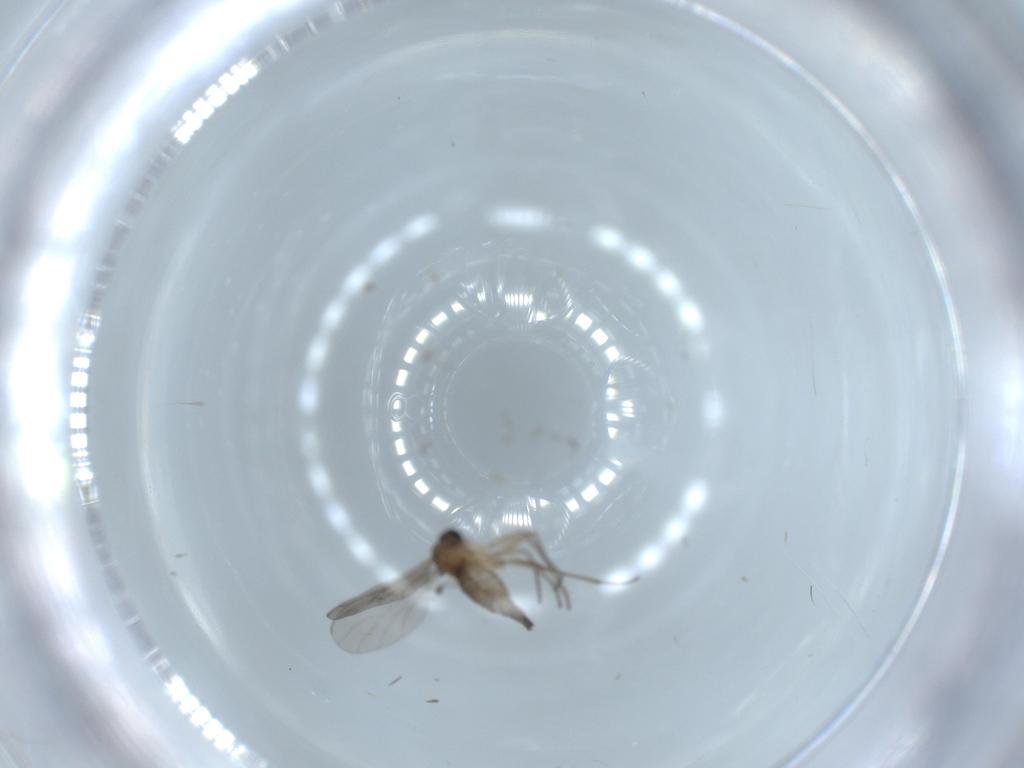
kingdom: Animalia
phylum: Arthropoda
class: Insecta
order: Diptera
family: Sciaridae
